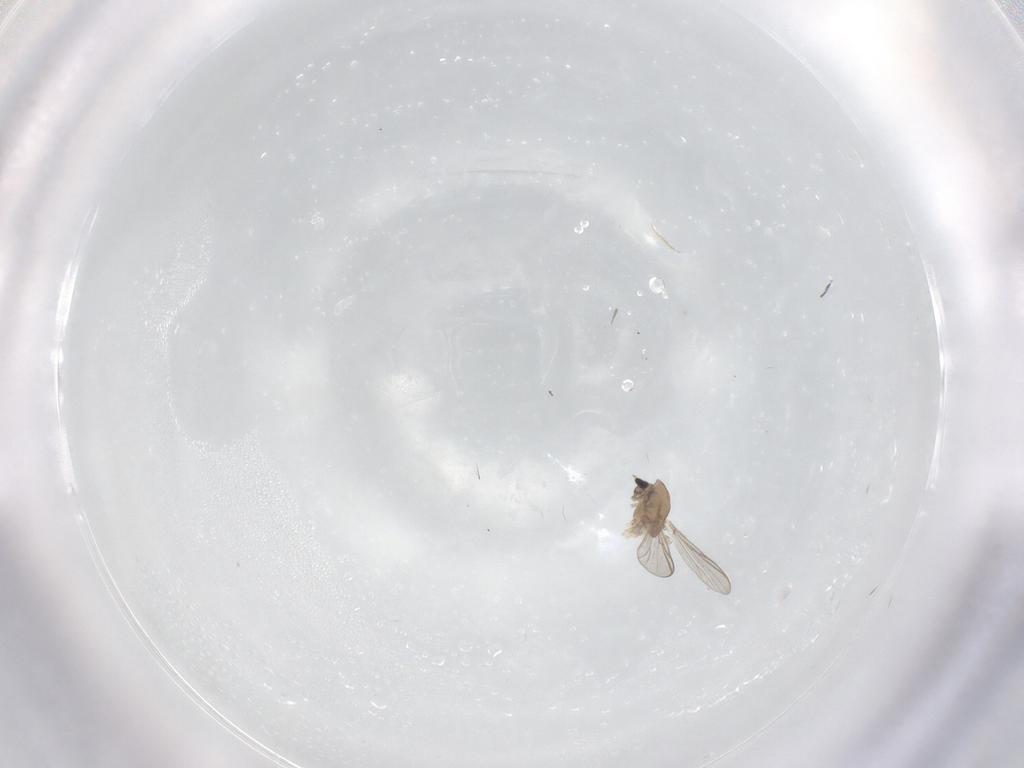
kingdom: Animalia
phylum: Arthropoda
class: Insecta
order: Diptera
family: Chironomidae
